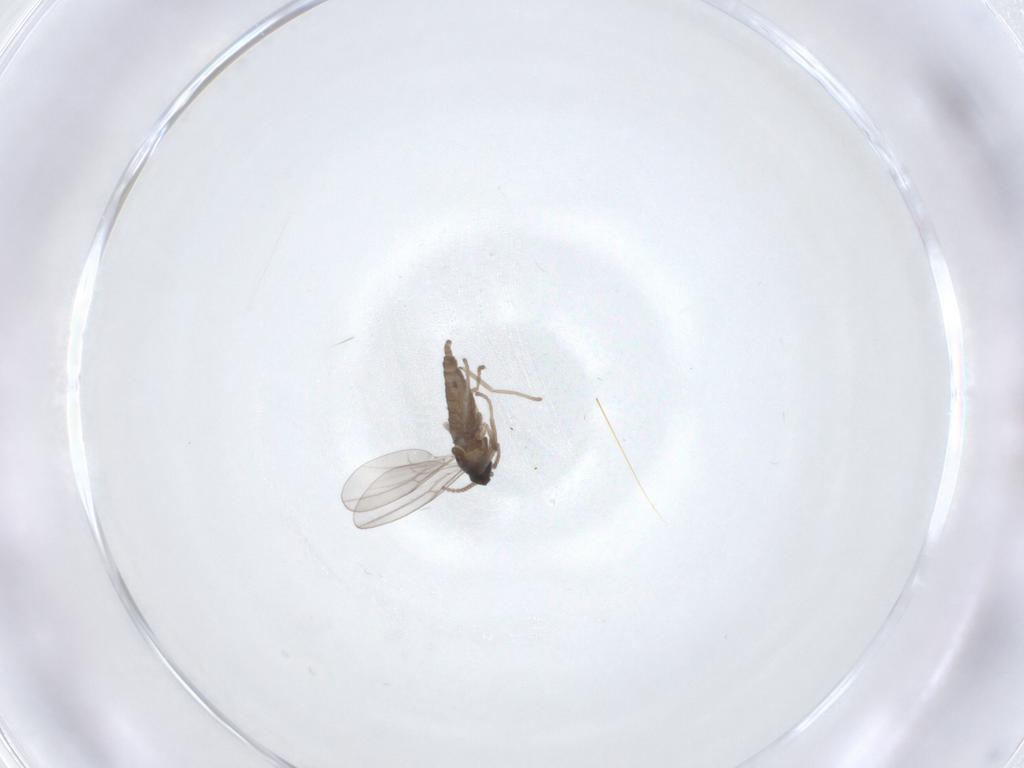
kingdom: Animalia
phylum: Arthropoda
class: Insecta
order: Diptera
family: Cecidomyiidae
